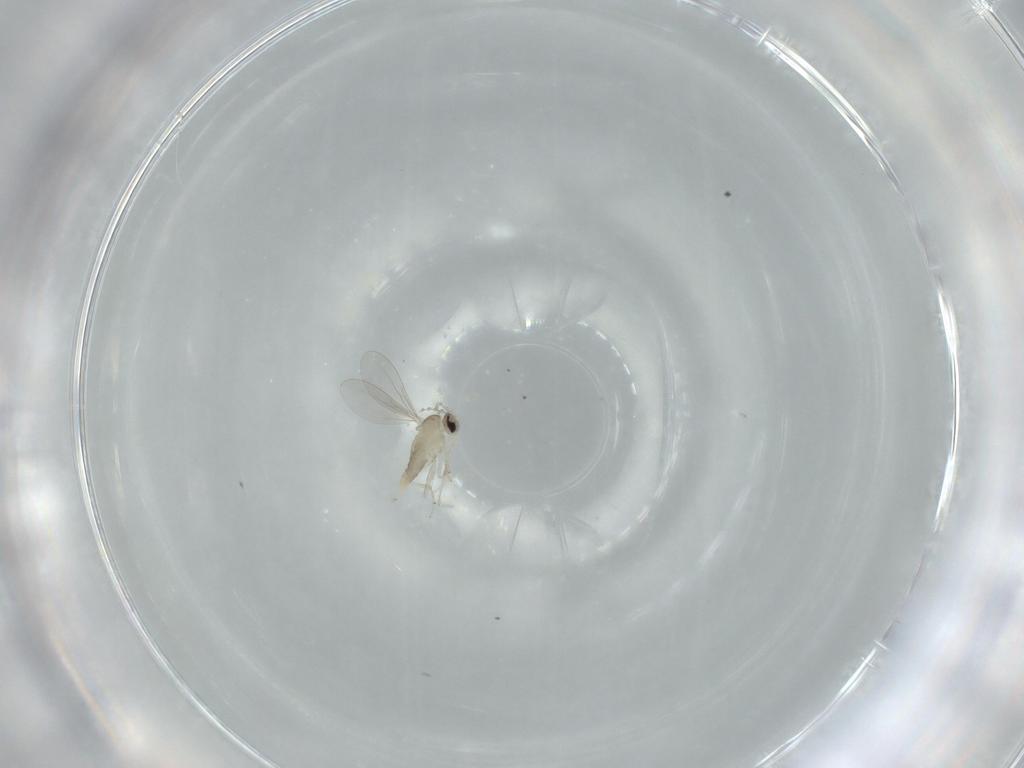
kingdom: Animalia
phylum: Arthropoda
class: Insecta
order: Diptera
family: Cecidomyiidae
